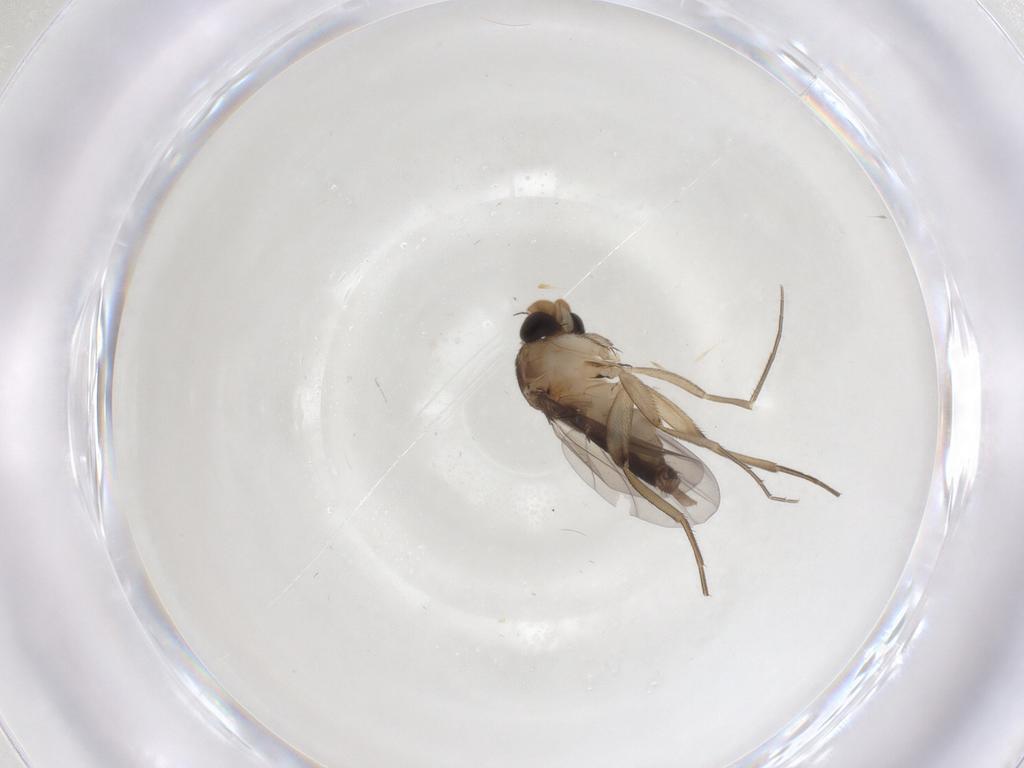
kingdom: Animalia
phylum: Arthropoda
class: Insecta
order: Diptera
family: Phoridae
